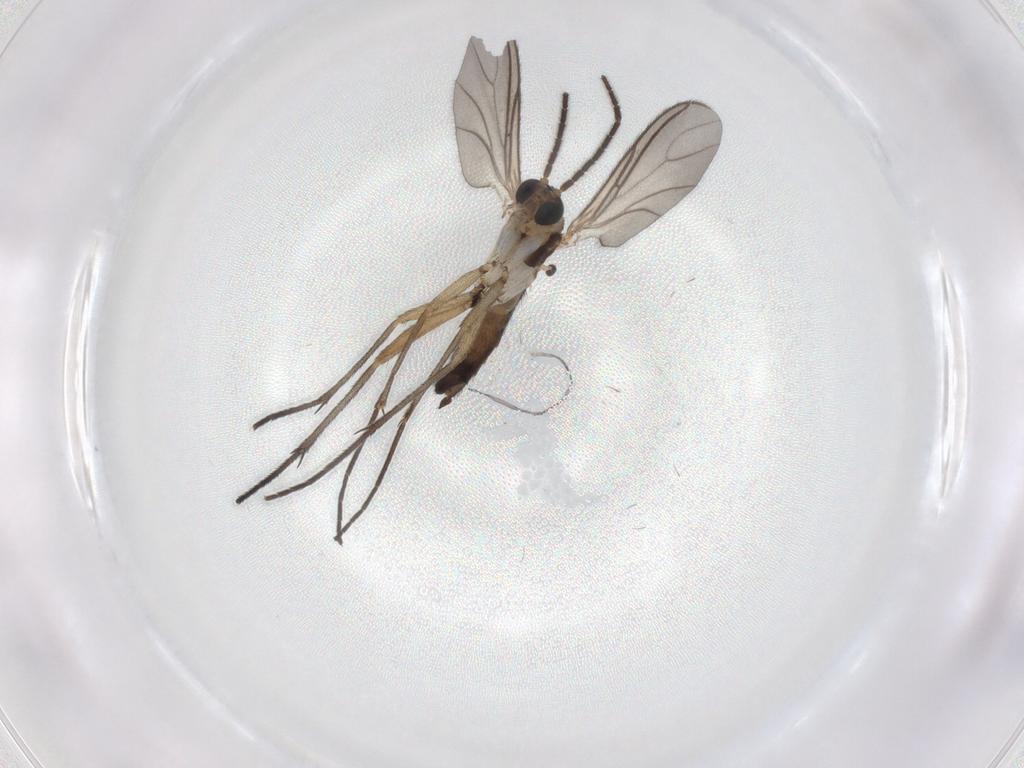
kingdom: Animalia
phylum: Arthropoda
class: Insecta
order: Diptera
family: Sciaridae
